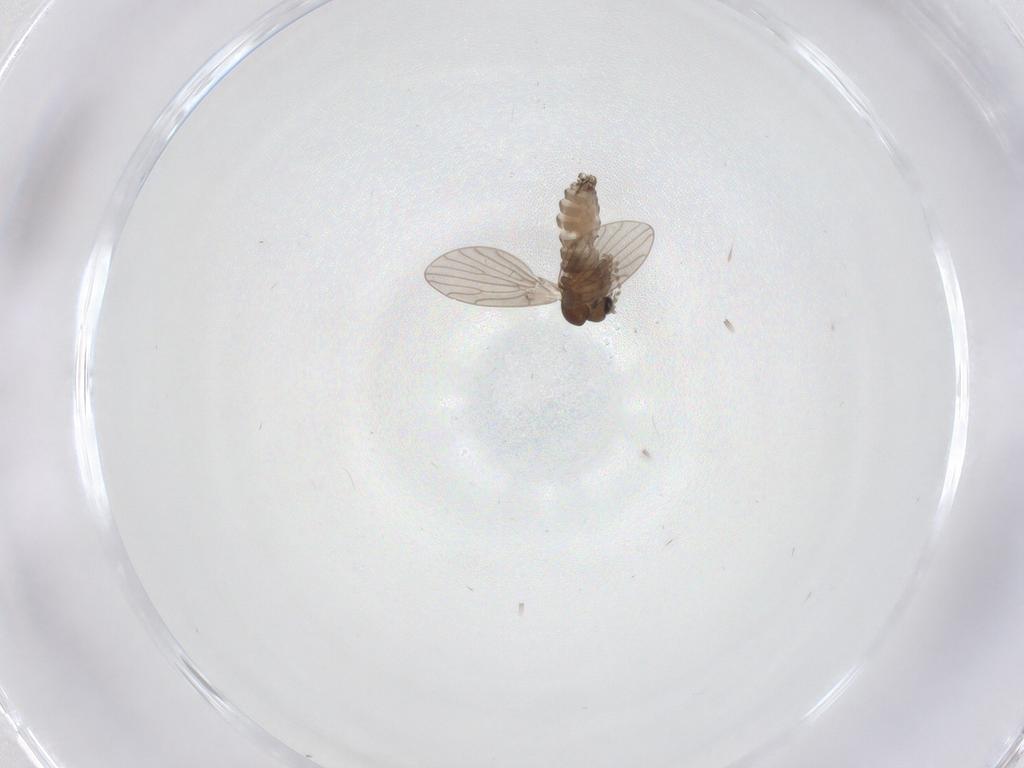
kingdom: Animalia
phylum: Arthropoda
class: Insecta
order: Diptera
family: Psychodidae
